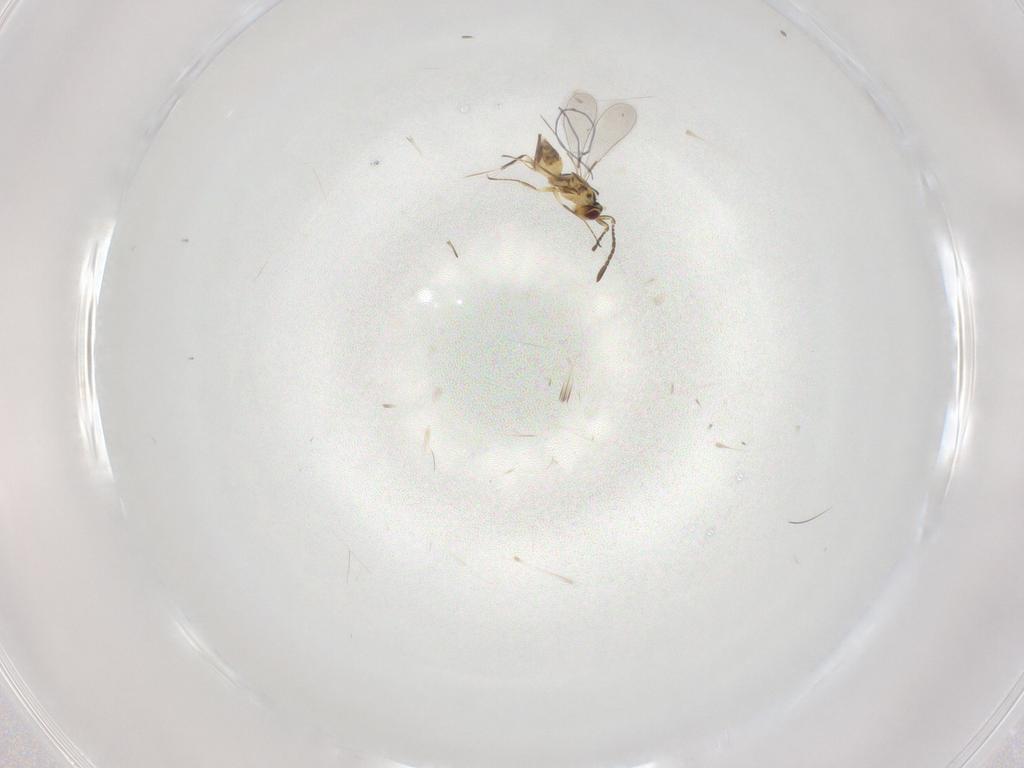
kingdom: Animalia
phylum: Arthropoda
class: Insecta
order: Hymenoptera
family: Mymaridae
